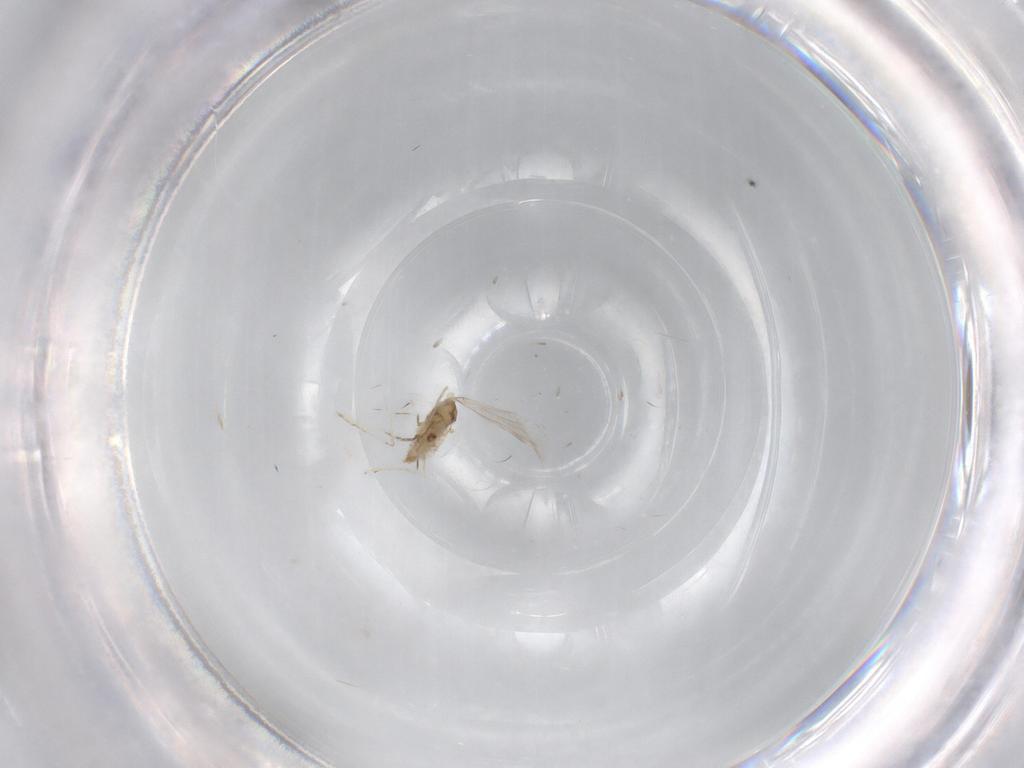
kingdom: Animalia
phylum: Arthropoda
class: Insecta
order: Diptera
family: Cecidomyiidae
